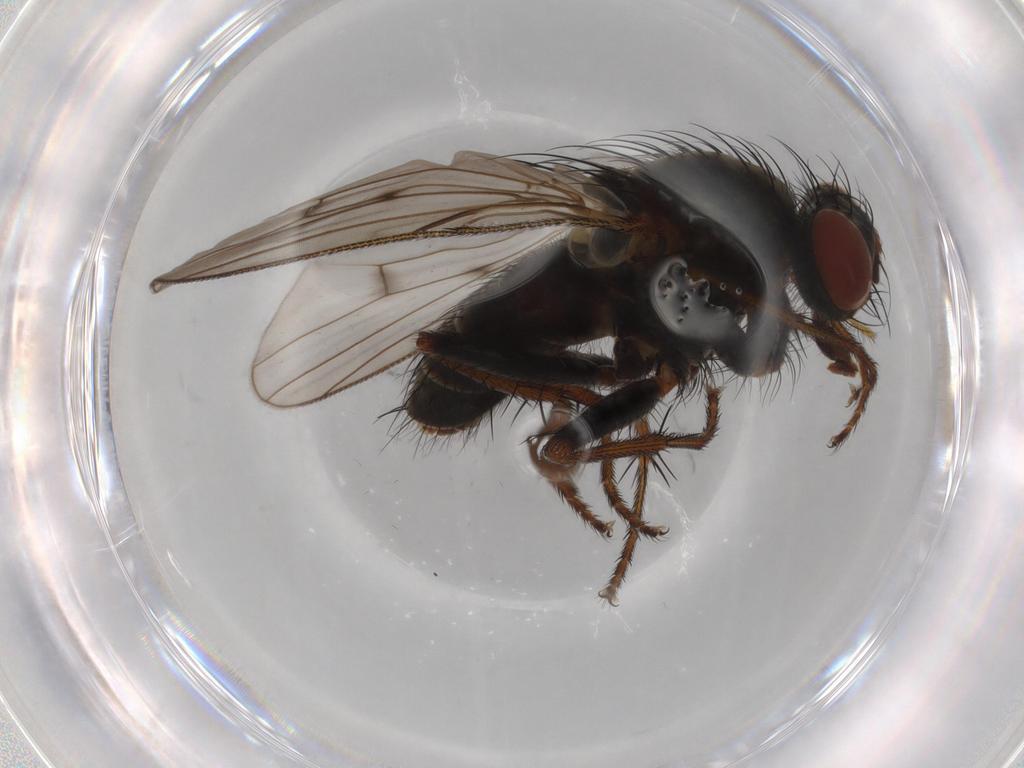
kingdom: Animalia
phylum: Arthropoda
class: Insecta
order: Diptera
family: Muscidae
